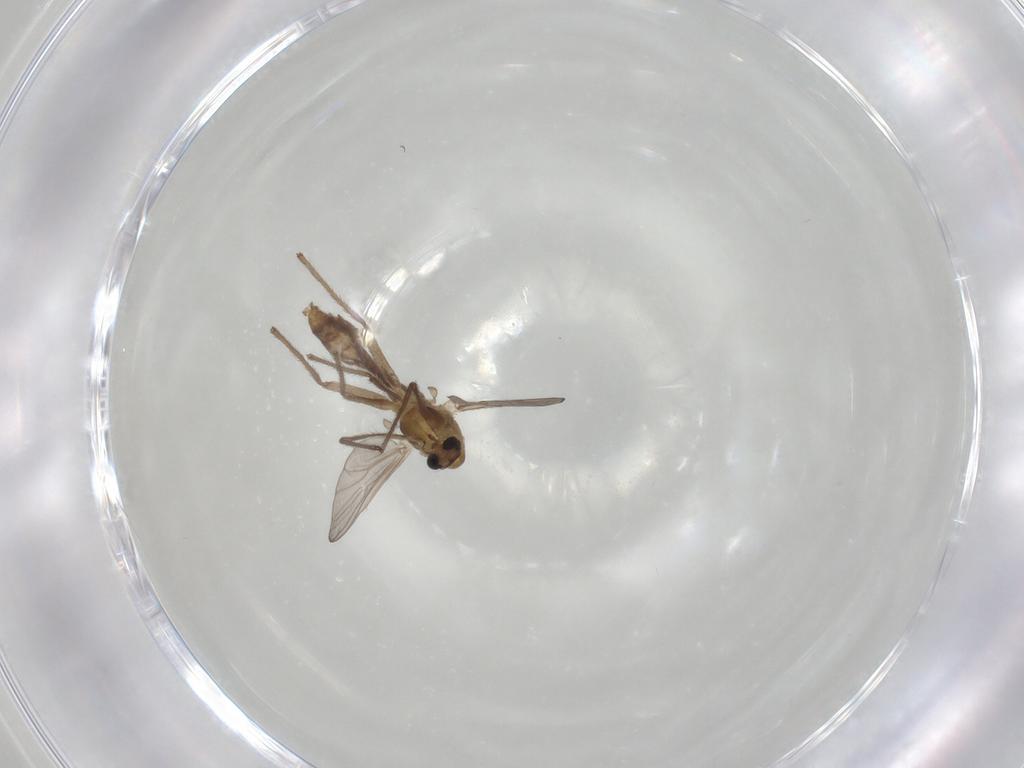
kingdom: Animalia
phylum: Arthropoda
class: Insecta
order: Diptera
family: Chironomidae
